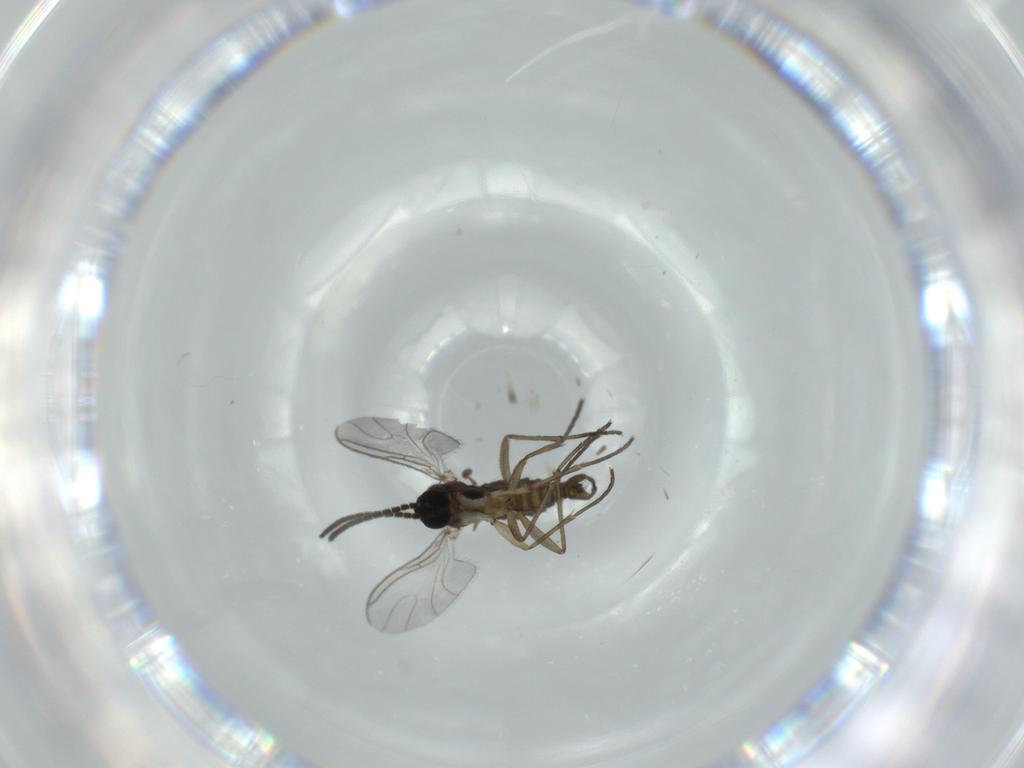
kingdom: Animalia
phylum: Arthropoda
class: Insecta
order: Diptera
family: Sciaridae
